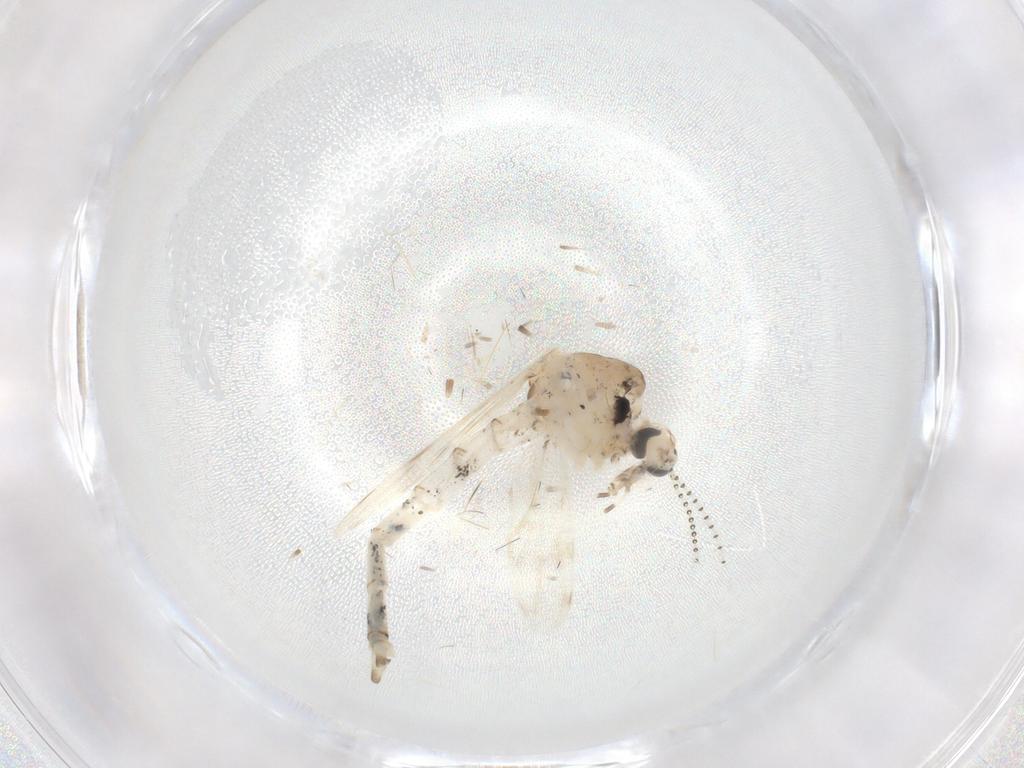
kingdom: Animalia
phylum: Arthropoda
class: Insecta
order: Diptera
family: Chaoboridae
